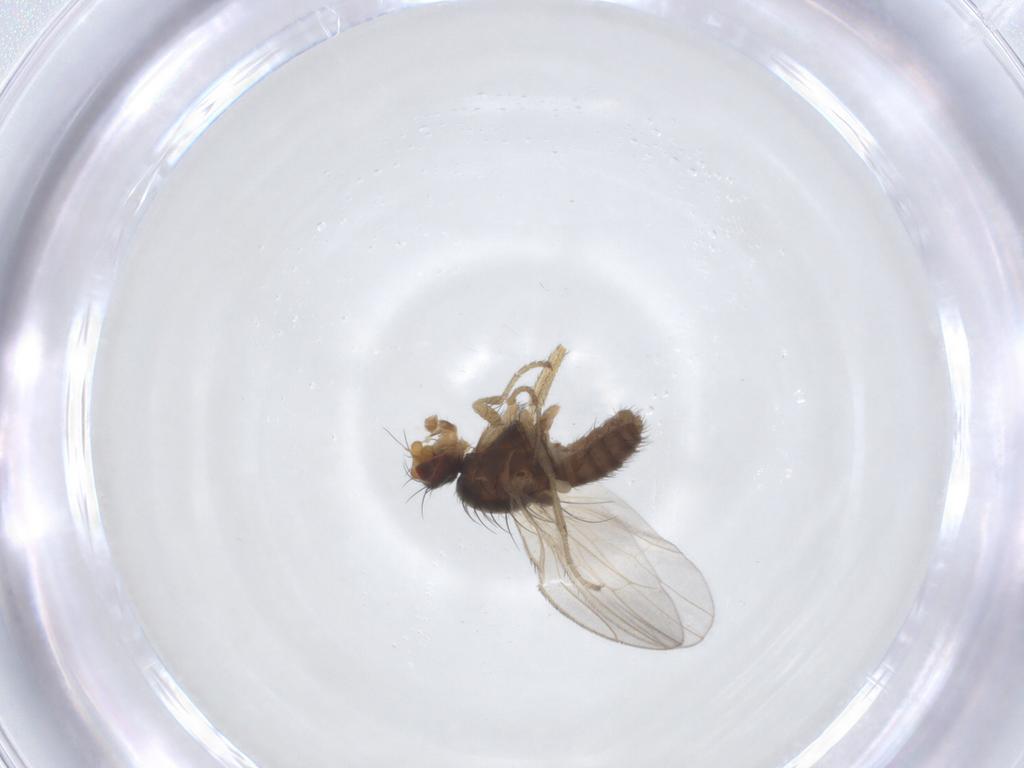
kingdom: Animalia
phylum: Arthropoda
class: Insecta
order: Diptera
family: Heleomyzidae
